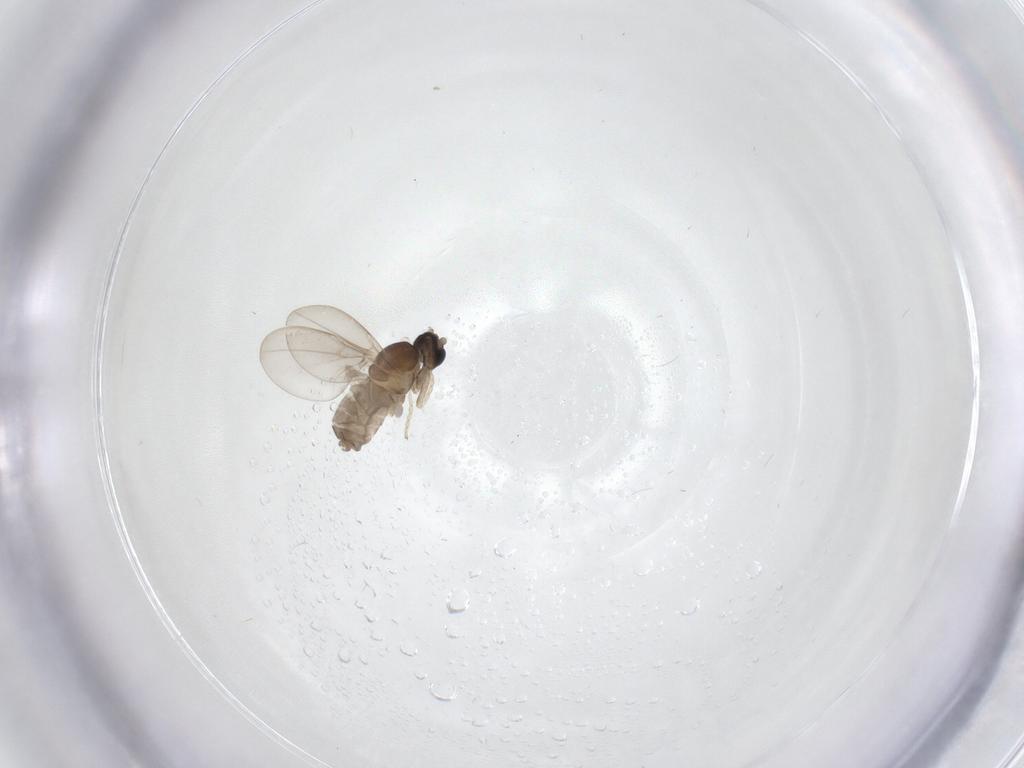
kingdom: Animalia
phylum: Arthropoda
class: Insecta
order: Diptera
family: Cecidomyiidae
